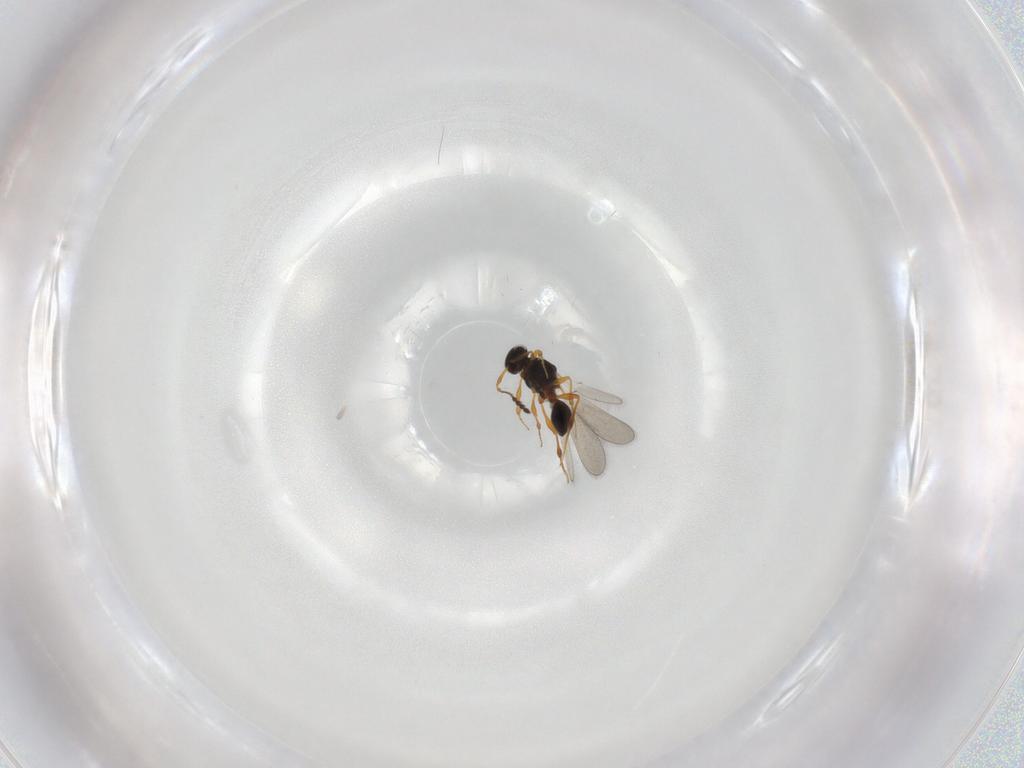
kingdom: Animalia
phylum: Arthropoda
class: Insecta
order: Hymenoptera
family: Platygastridae
